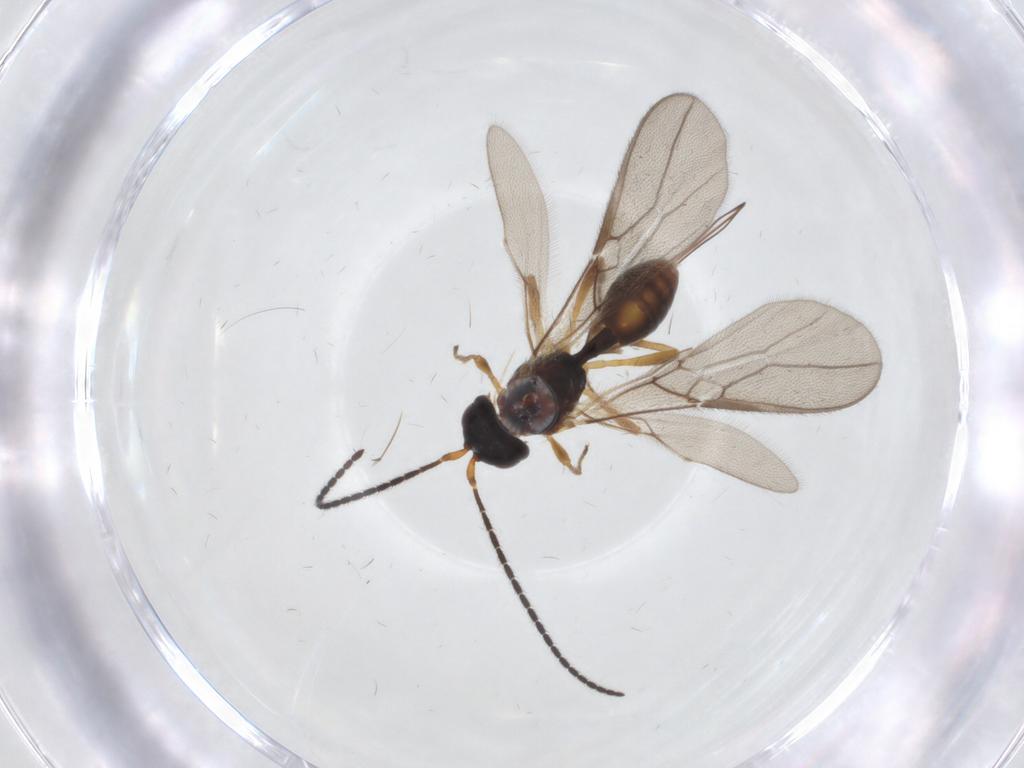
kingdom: Animalia
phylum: Arthropoda
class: Insecta
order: Hymenoptera
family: Braconidae
